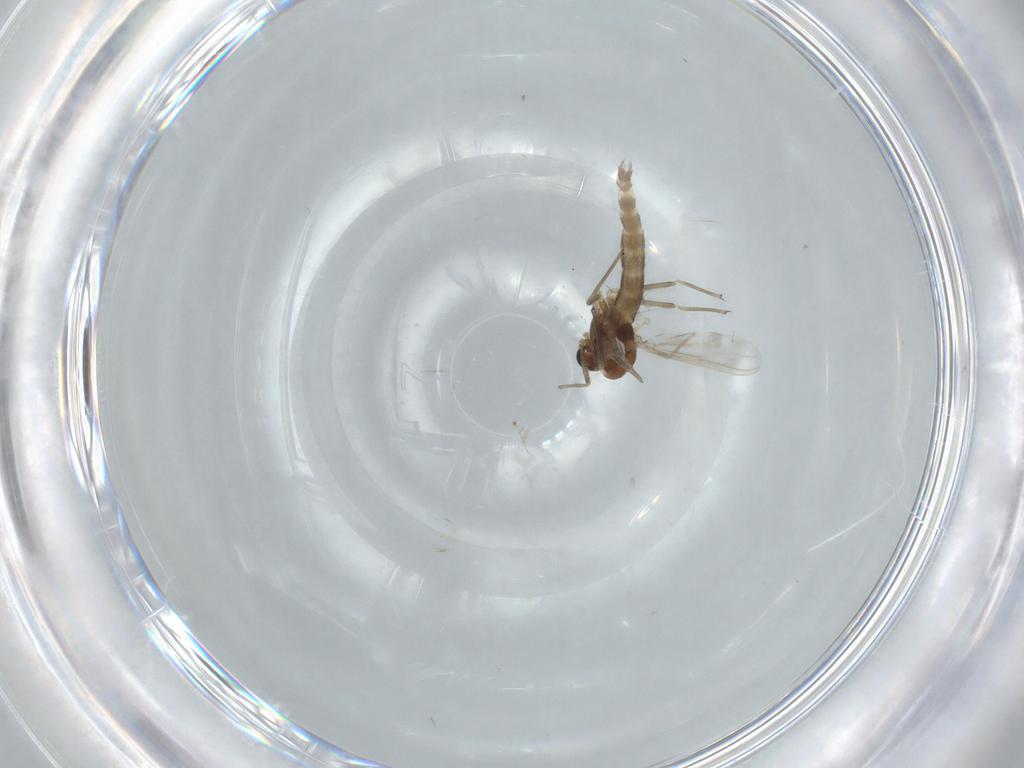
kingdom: Animalia
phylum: Arthropoda
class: Insecta
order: Diptera
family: Chironomidae
